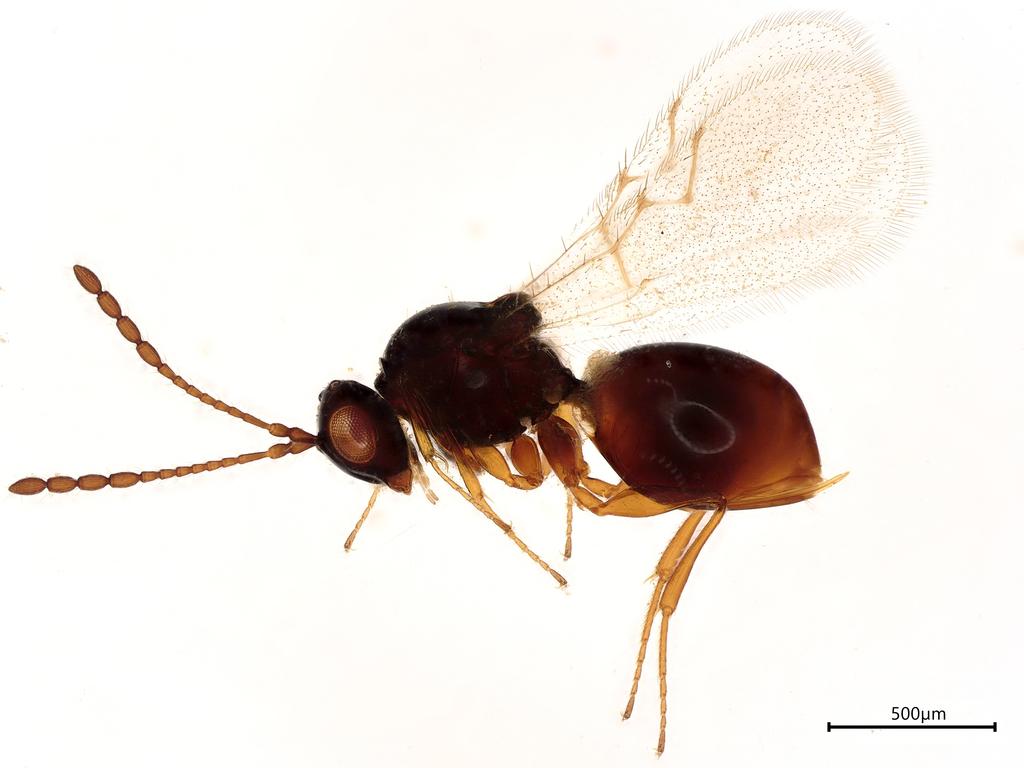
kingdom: Animalia
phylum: Arthropoda
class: Insecta
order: Hymenoptera
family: Figitidae
